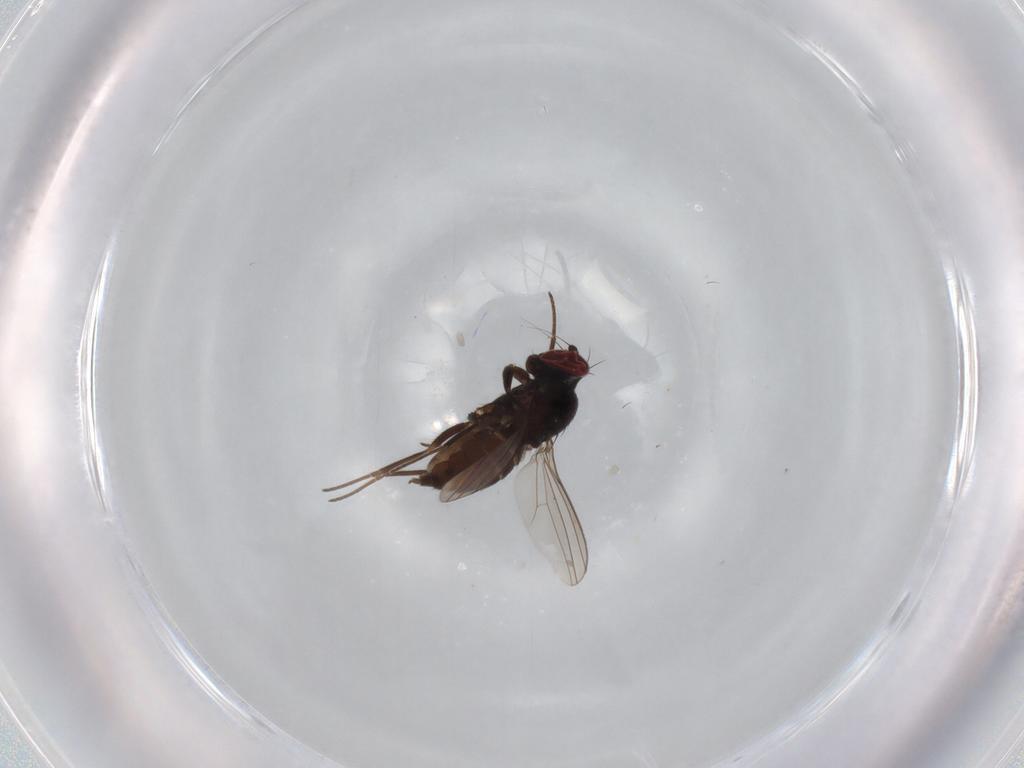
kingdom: Animalia
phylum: Arthropoda
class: Insecta
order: Diptera
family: Dolichopodidae
